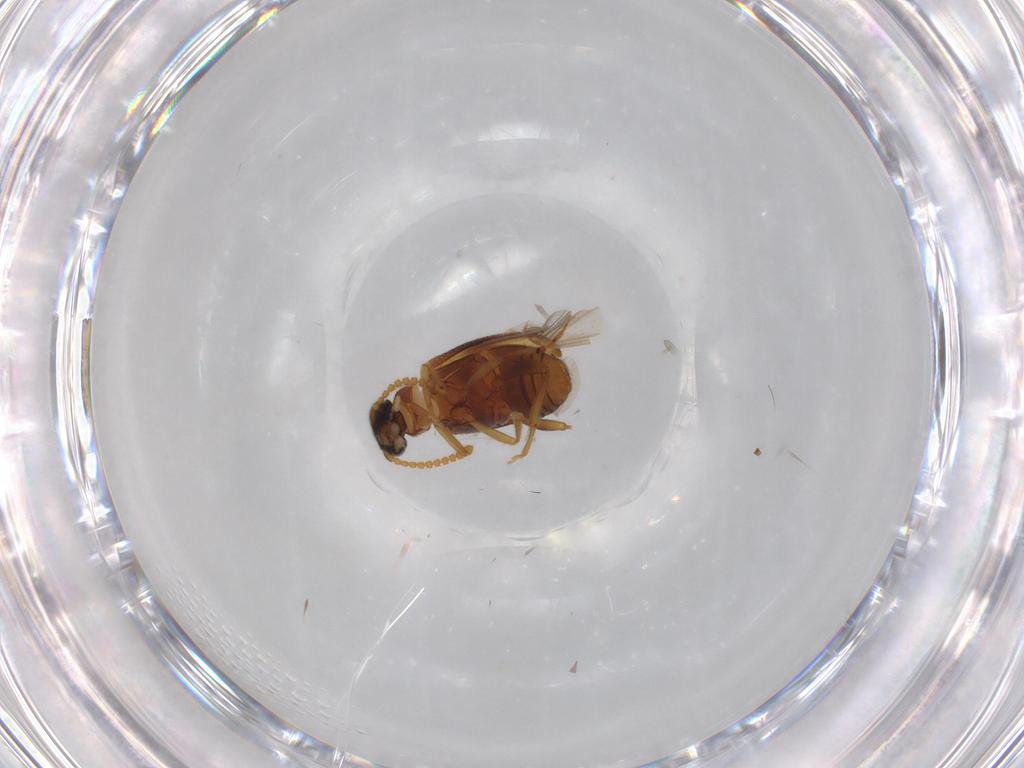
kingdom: Animalia
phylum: Arthropoda
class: Insecta
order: Coleoptera
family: Aderidae
